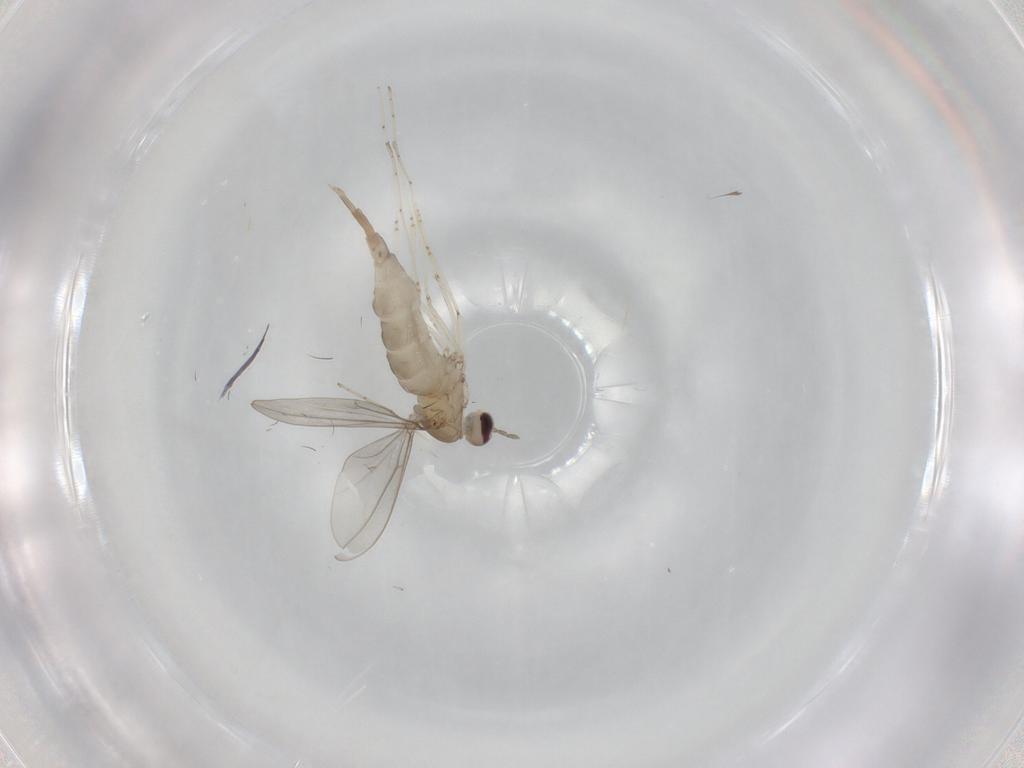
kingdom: Animalia
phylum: Arthropoda
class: Insecta
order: Diptera
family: Cecidomyiidae
